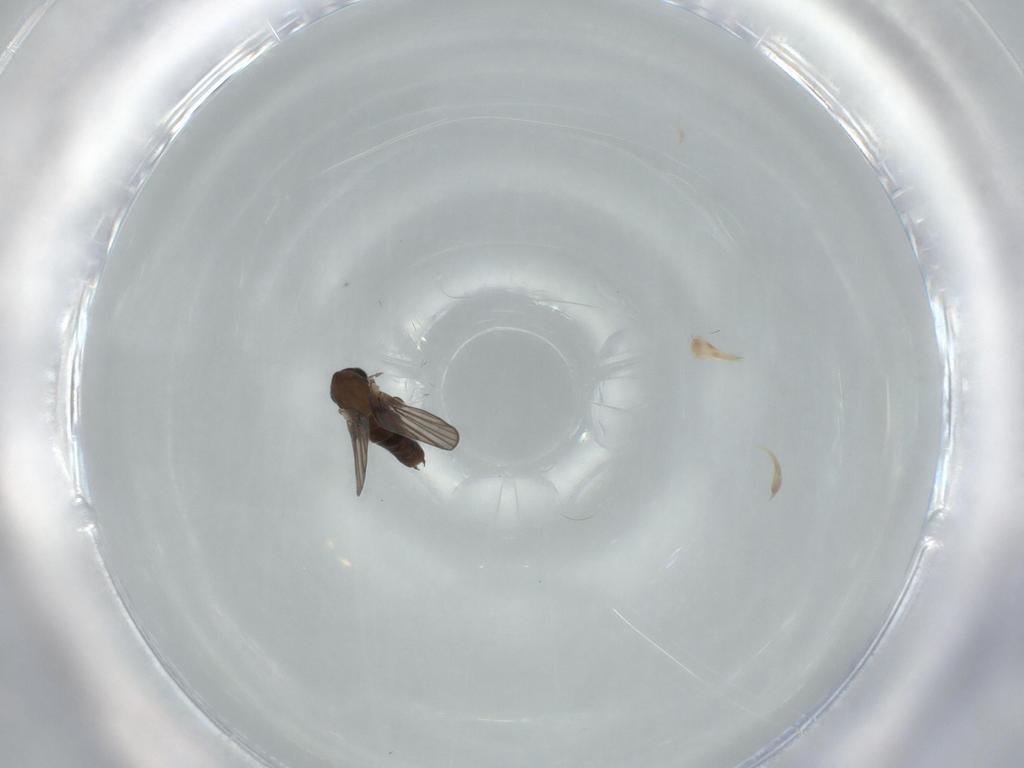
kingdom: Animalia
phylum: Arthropoda
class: Insecta
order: Diptera
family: Psychodidae
